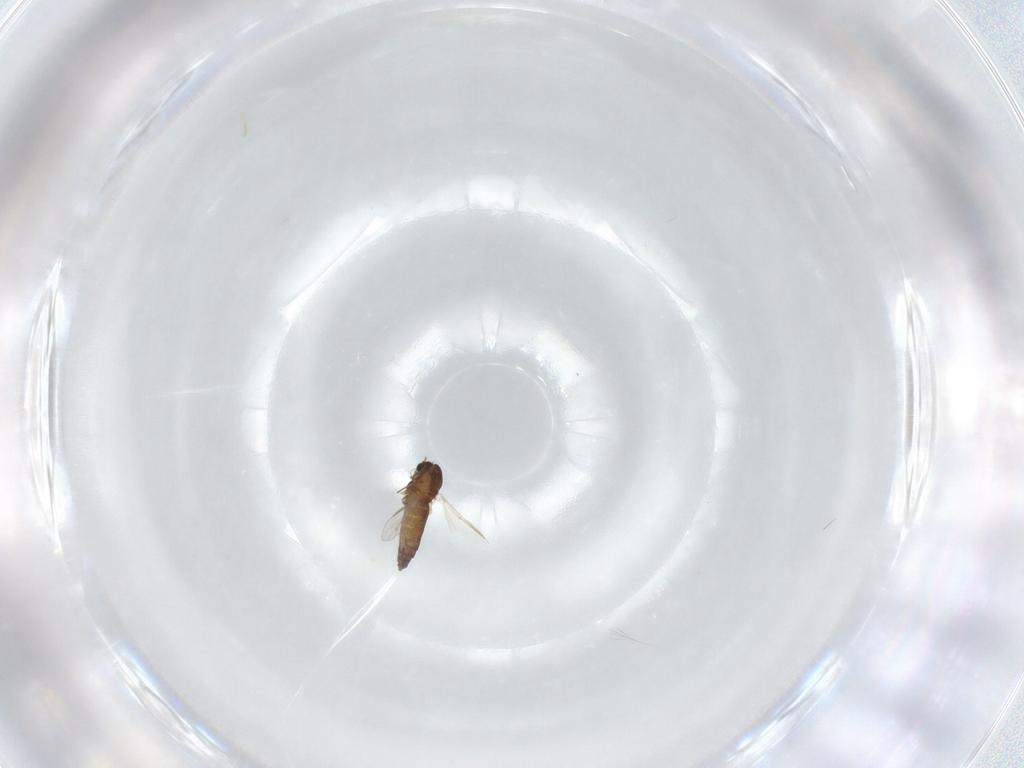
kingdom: Animalia
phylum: Arthropoda
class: Insecta
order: Diptera
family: Chironomidae
